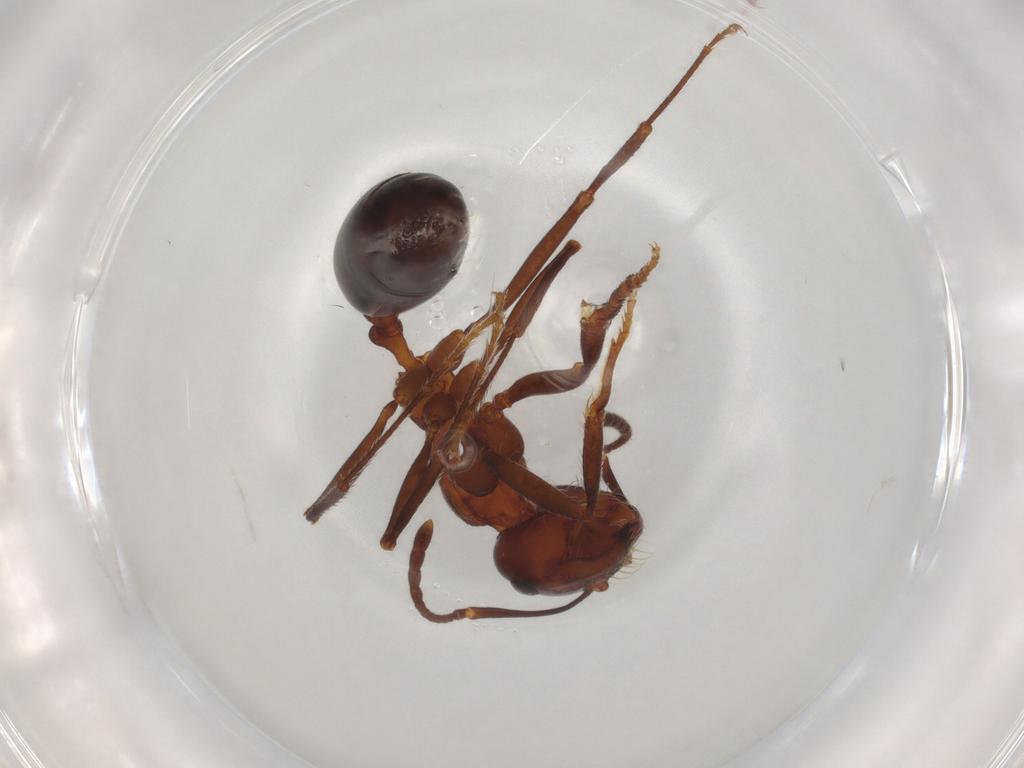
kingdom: Animalia
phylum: Arthropoda
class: Insecta
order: Hymenoptera
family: Formicidae
